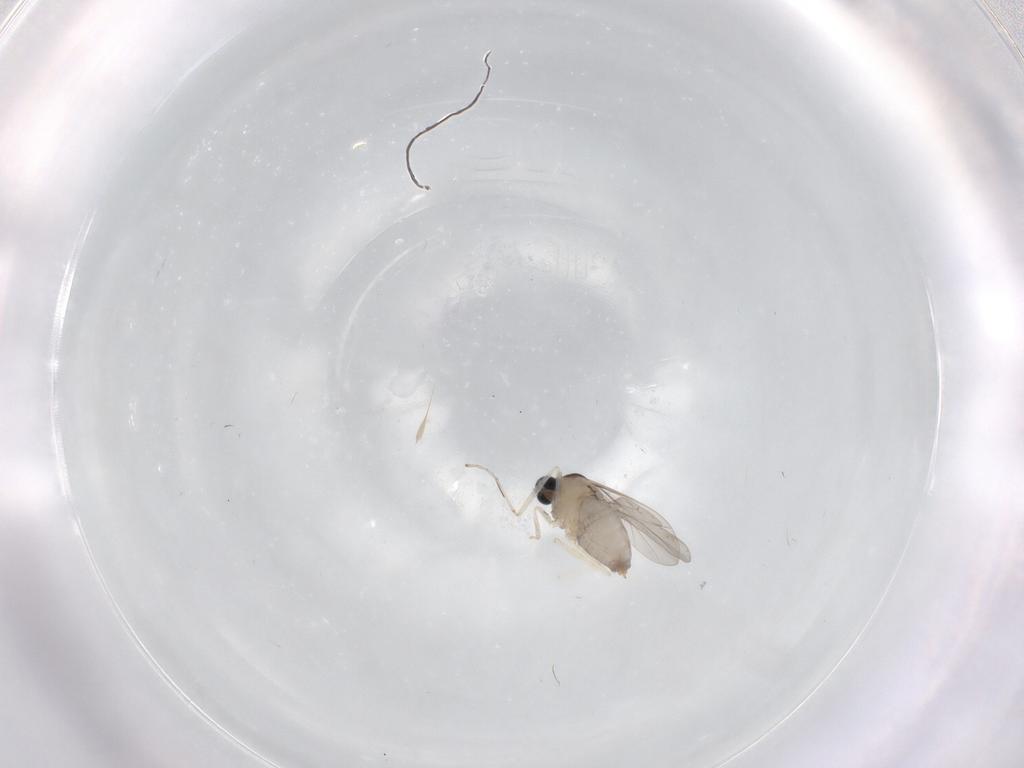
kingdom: Animalia
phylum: Arthropoda
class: Insecta
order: Diptera
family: Cecidomyiidae
